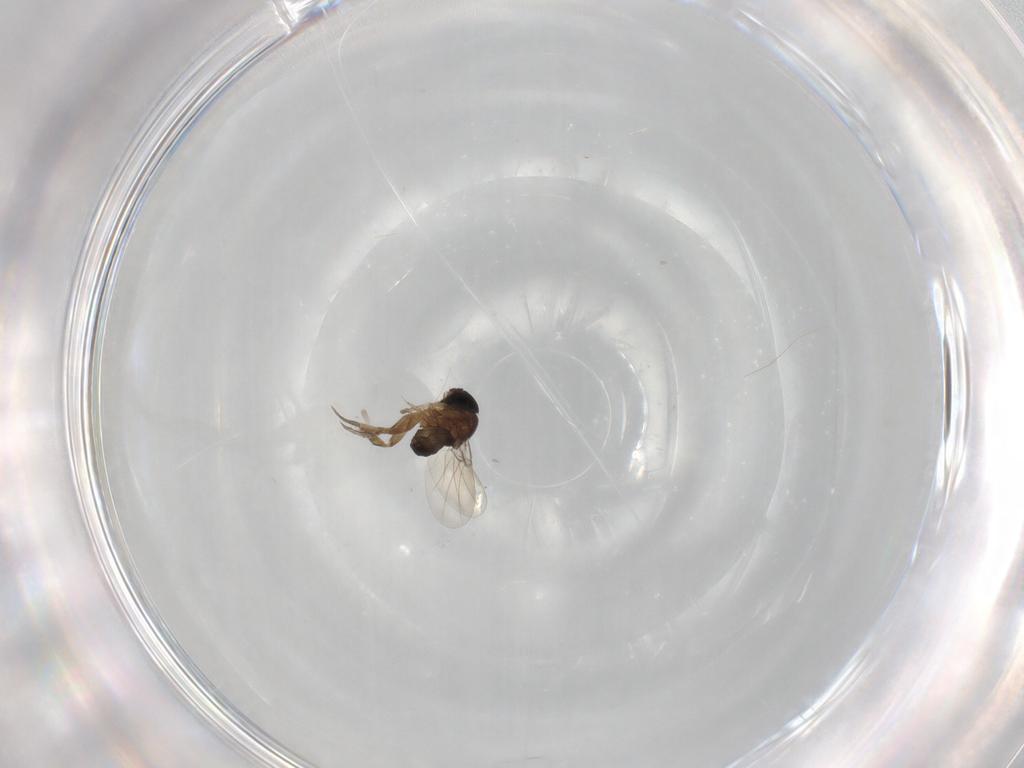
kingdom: Animalia
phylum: Arthropoda
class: Insecta
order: Diptera
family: Phoridae
